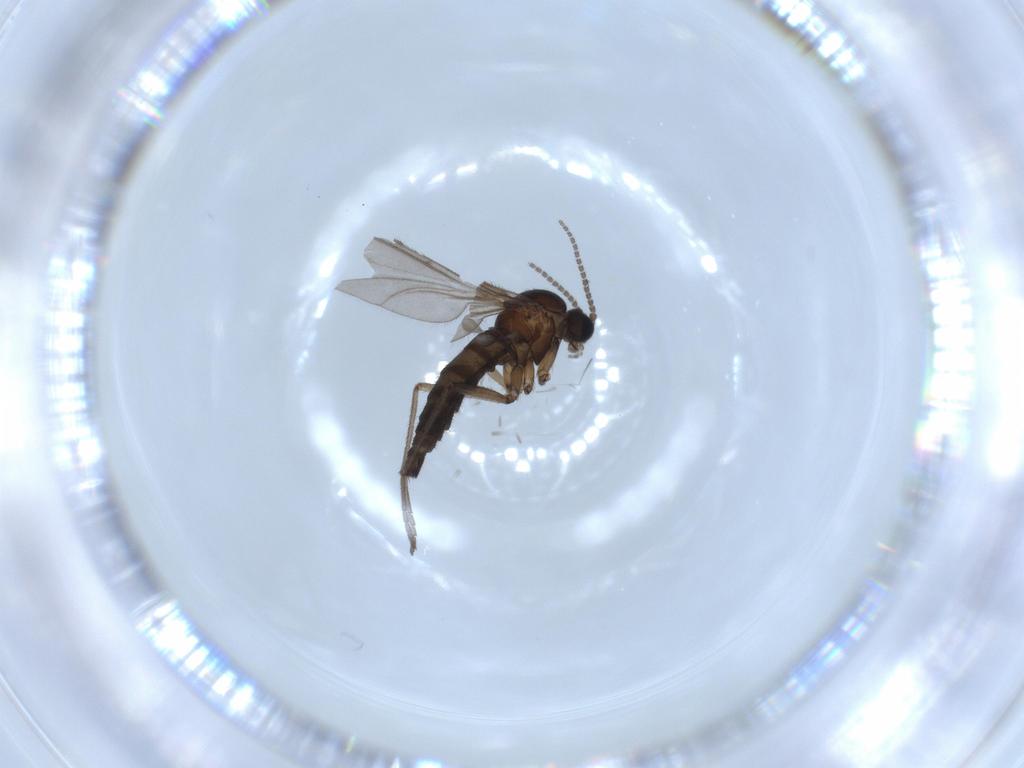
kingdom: Animalia
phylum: Arthropoda
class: Insecta
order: Diptera
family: Sciaridae
